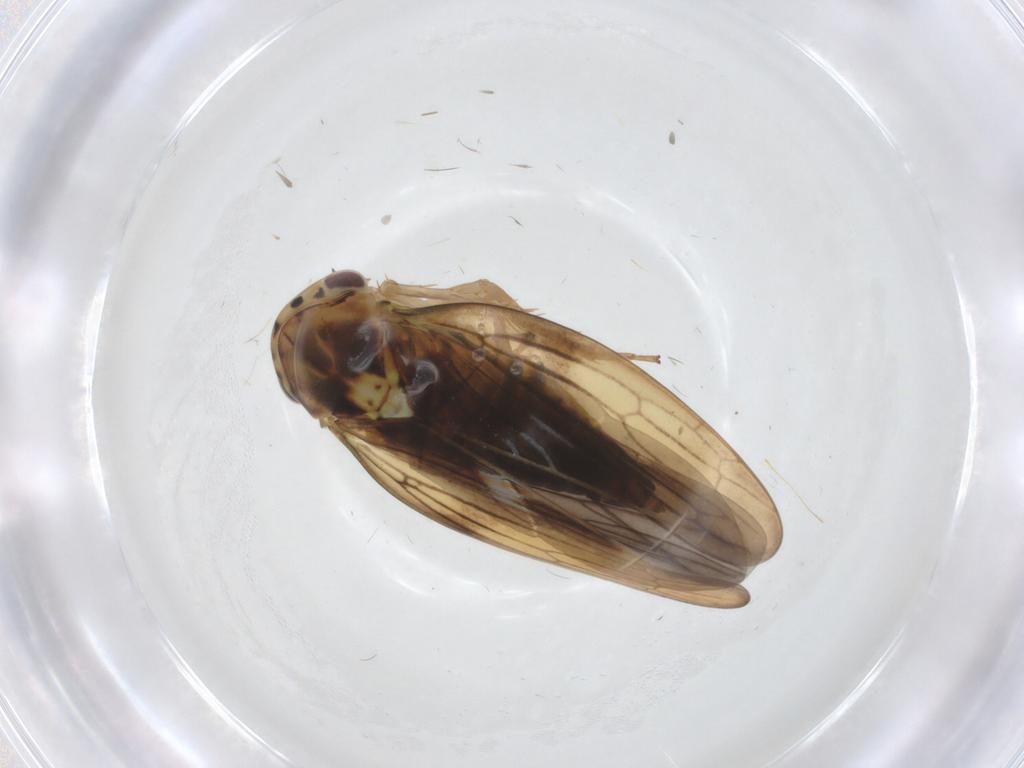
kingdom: Animalia
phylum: Arthropoda
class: Insecta
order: Hemiptera
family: Cicadellidae
